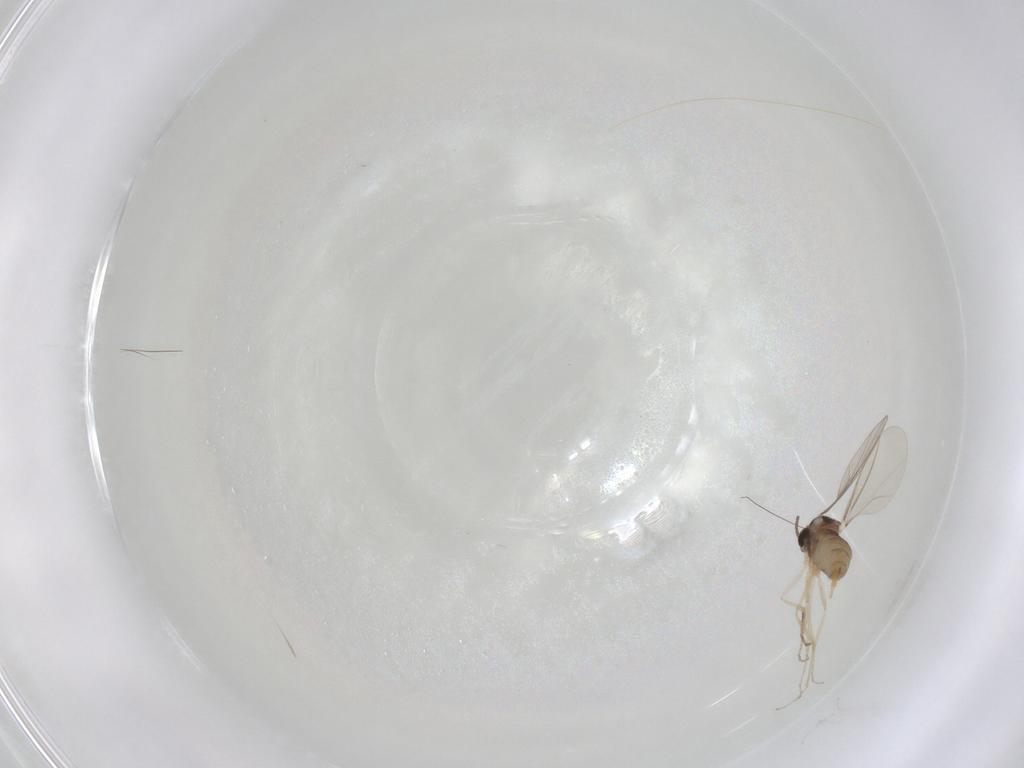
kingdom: Animalia
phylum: Arthropoda
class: Insecta
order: Diptera
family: Cecidomyiidae
